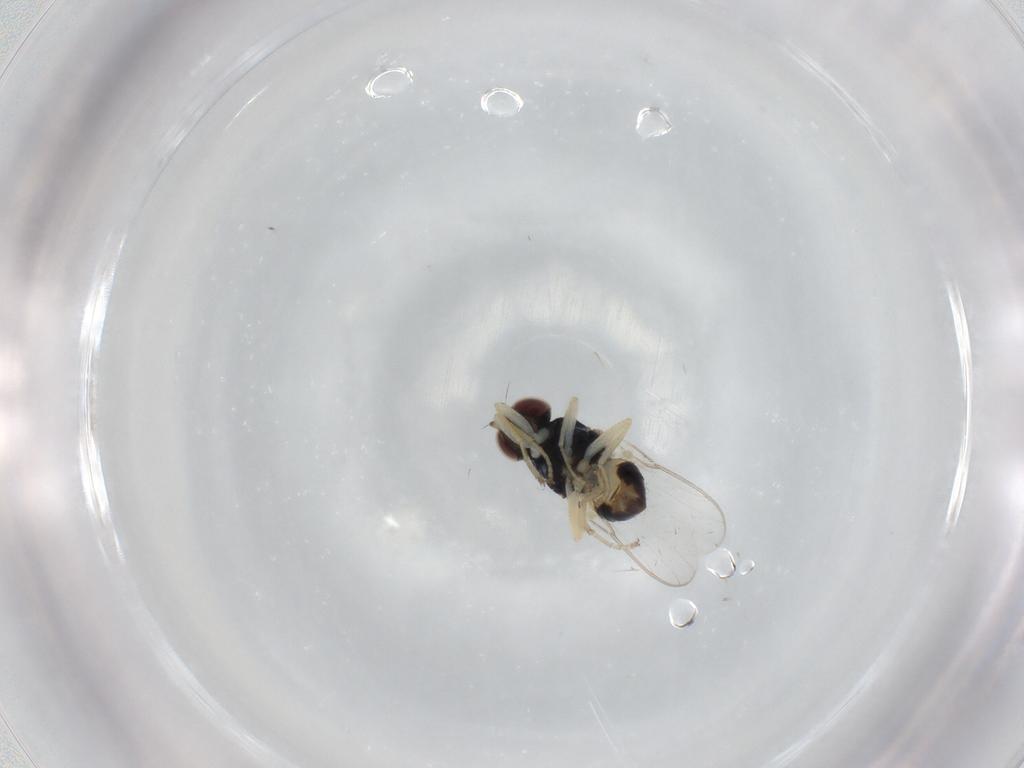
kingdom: Animalia
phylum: Arthropoda
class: Insecta
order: Diptera
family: Chloropidae
